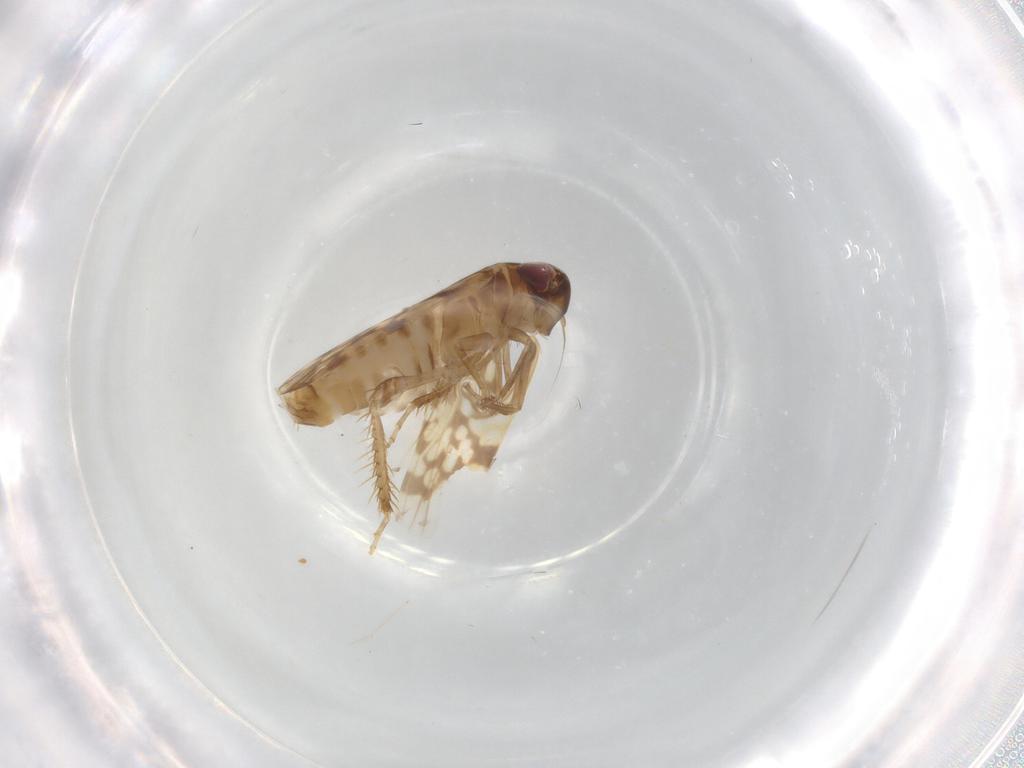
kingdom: Animalia
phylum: Arthropoda
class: Insecta
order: Hemiptera
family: Cicadellidae
